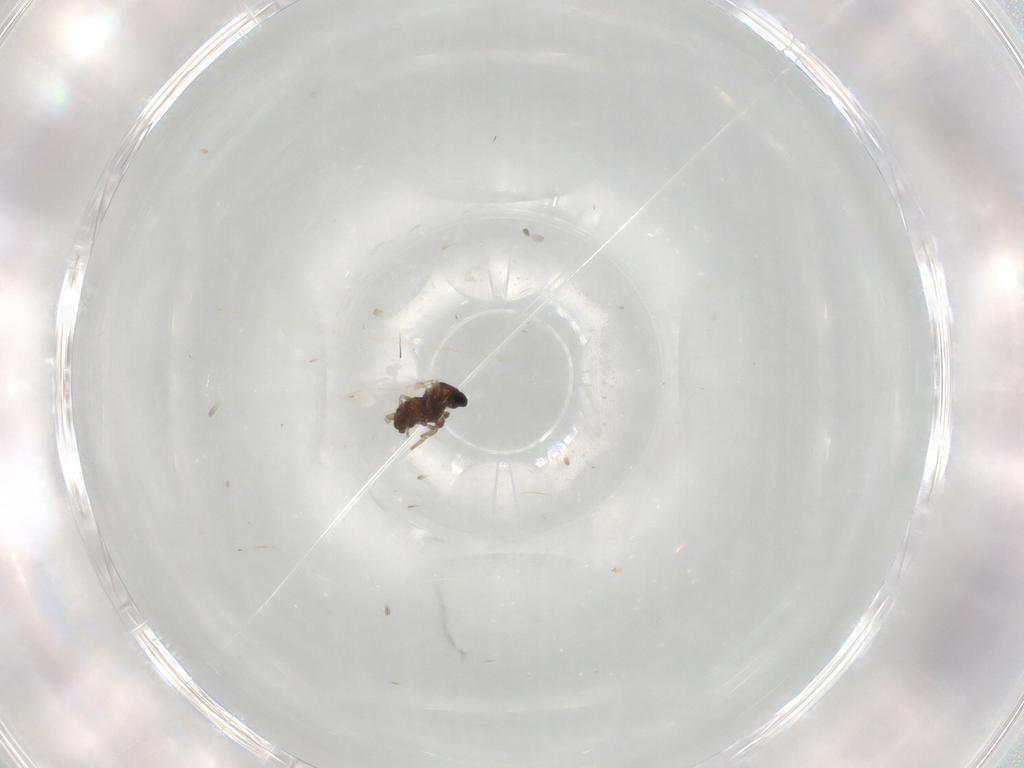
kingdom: Animalia
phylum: Arthropoda
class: Insecta
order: Diptera
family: Cecidomyiidae
